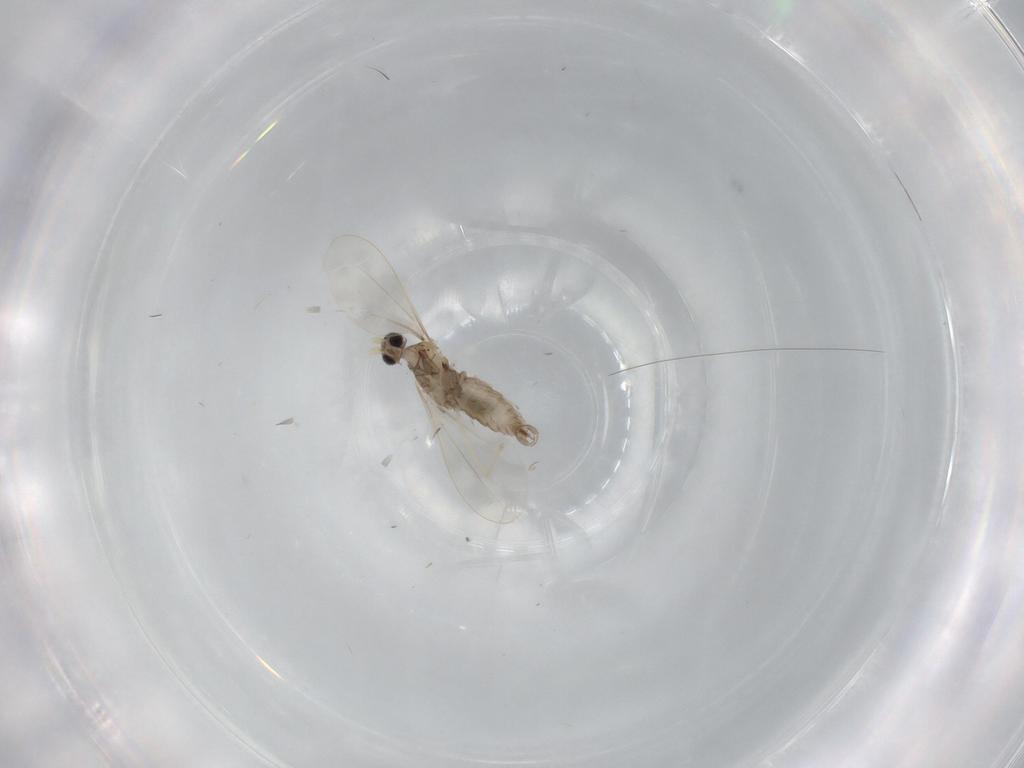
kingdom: Animalia
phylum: Arthropoda
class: Insecta
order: Diptera
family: Cecidomyiidae
